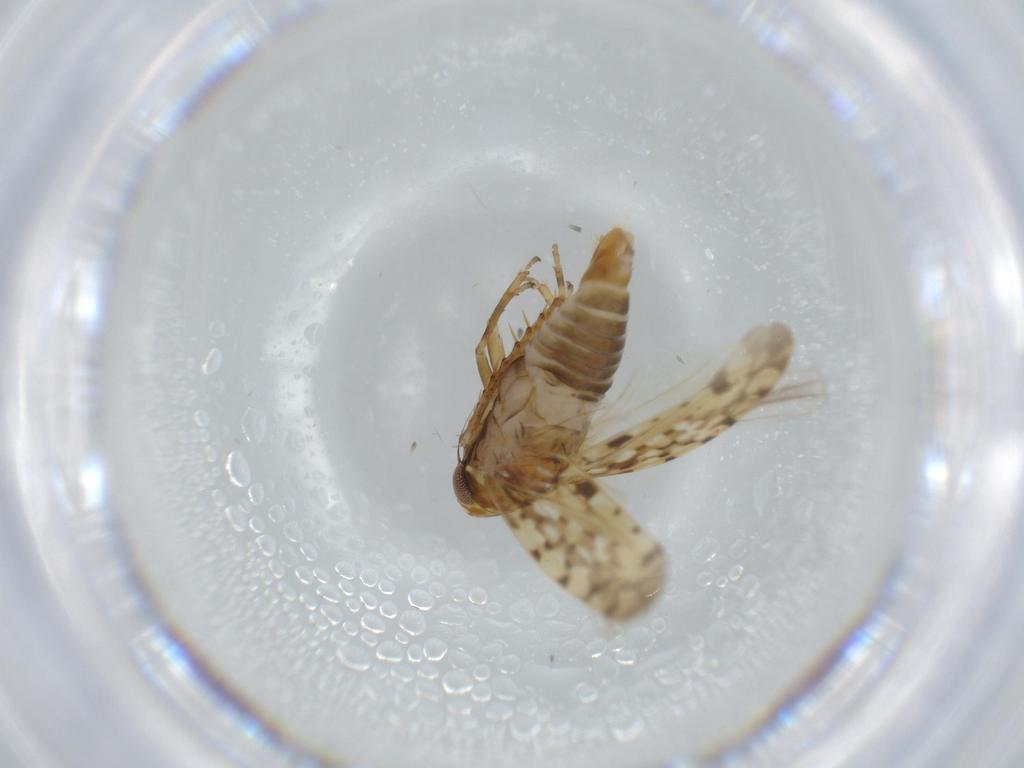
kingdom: Animalia
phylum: Arthropoda
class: Insecta
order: Hemiptera
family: Cicadellidae
